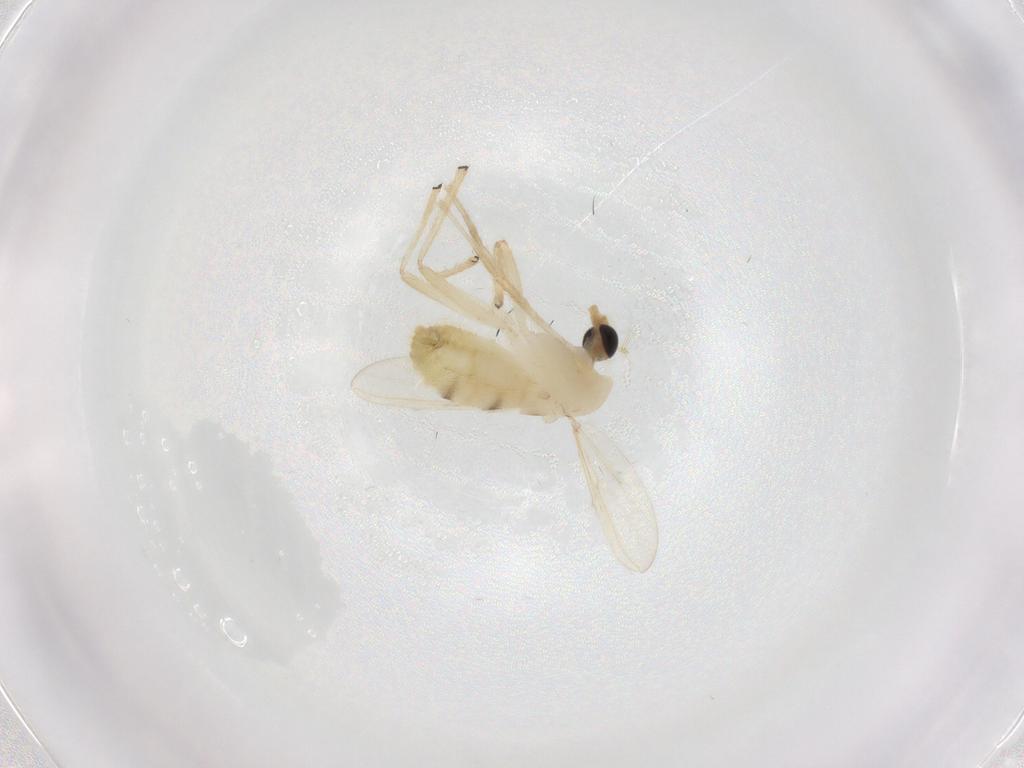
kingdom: Animalia
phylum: Arthropoda
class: Insecta
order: Diptera
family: Chironomidae
